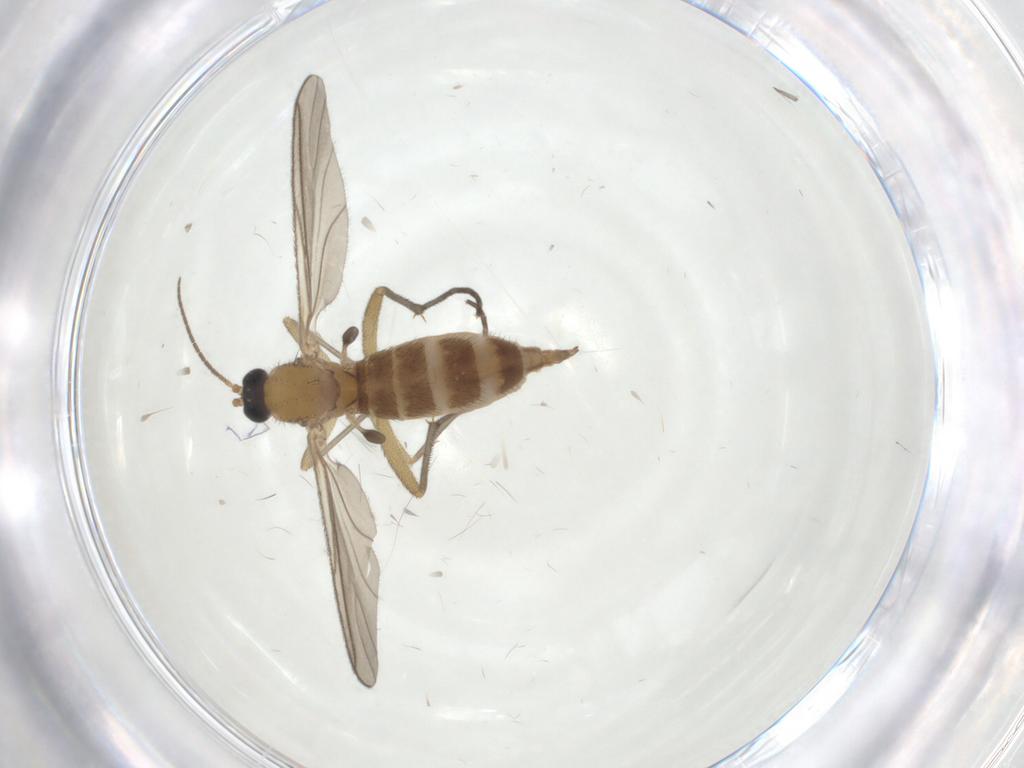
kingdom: Animalia
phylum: Arthropoda
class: Insecta
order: Diptera
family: Sciaridae
